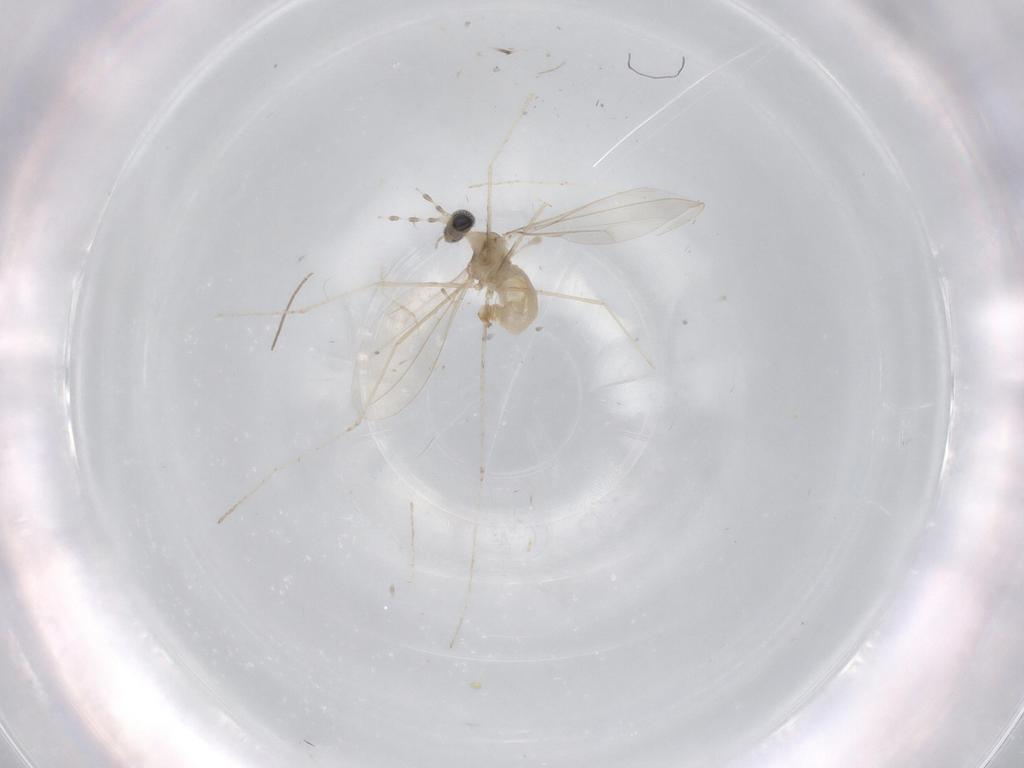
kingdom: Animalia
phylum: Arthropoda
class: Insecta
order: Diptera
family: Cecidomyiidae
